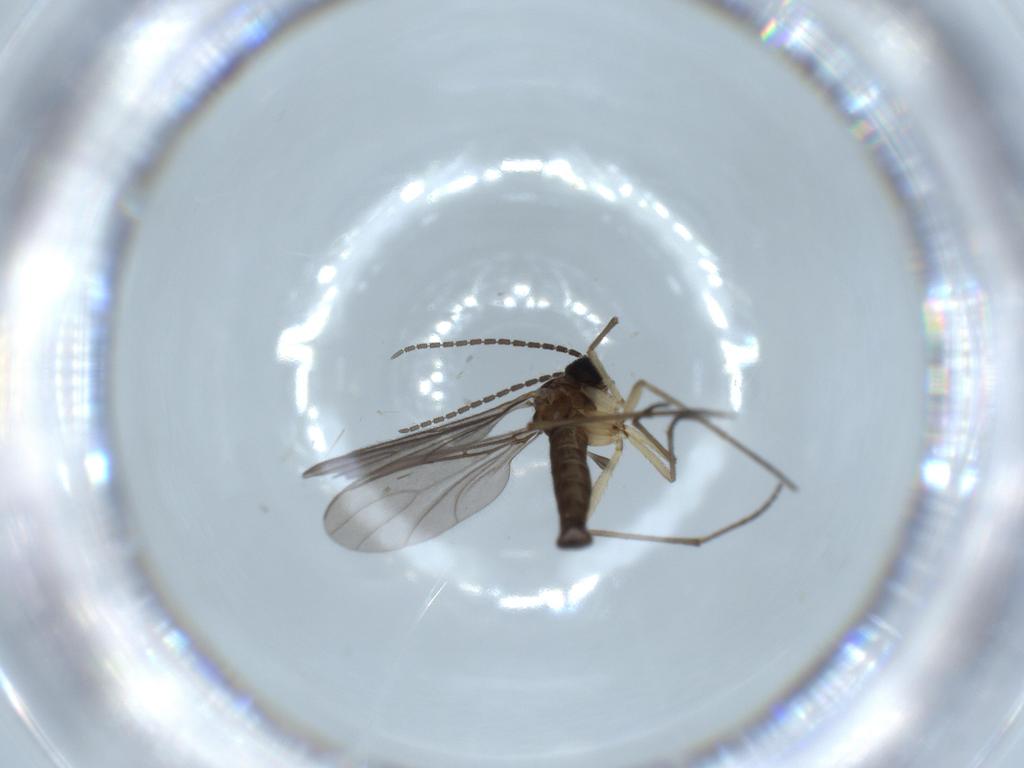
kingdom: Animalia
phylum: Arthropoda
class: Insecta
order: Diptera
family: Sciaridae
